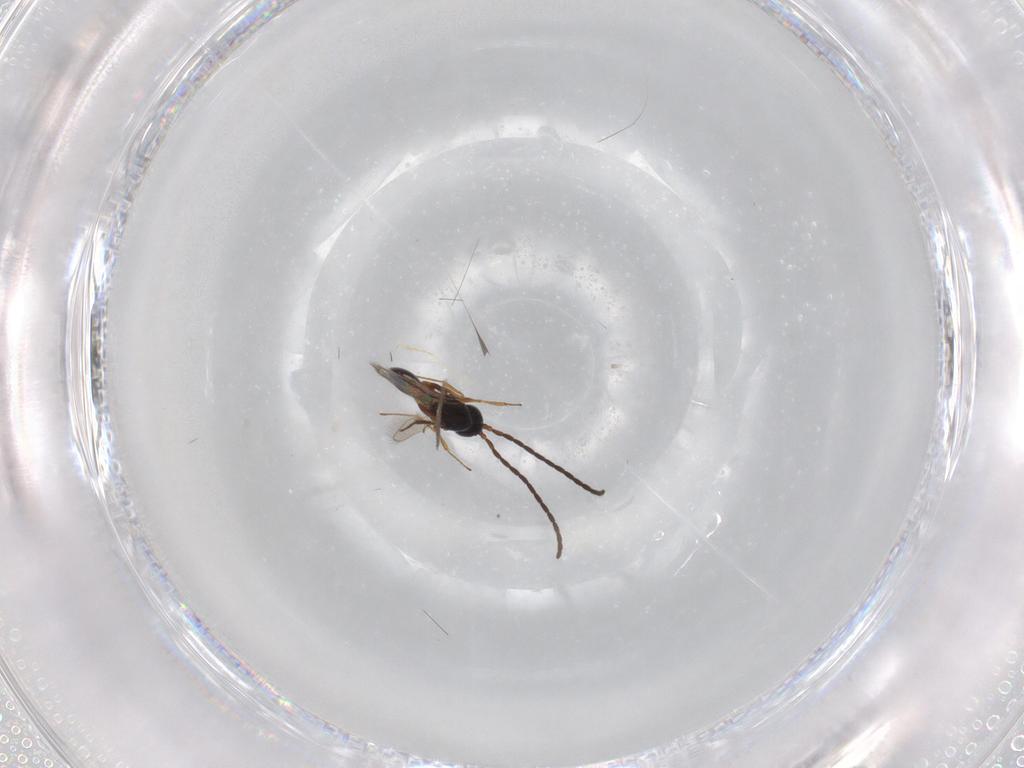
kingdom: Animalia
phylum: Arthropoda
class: Insecta
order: Hymenoptera
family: Figitidae
